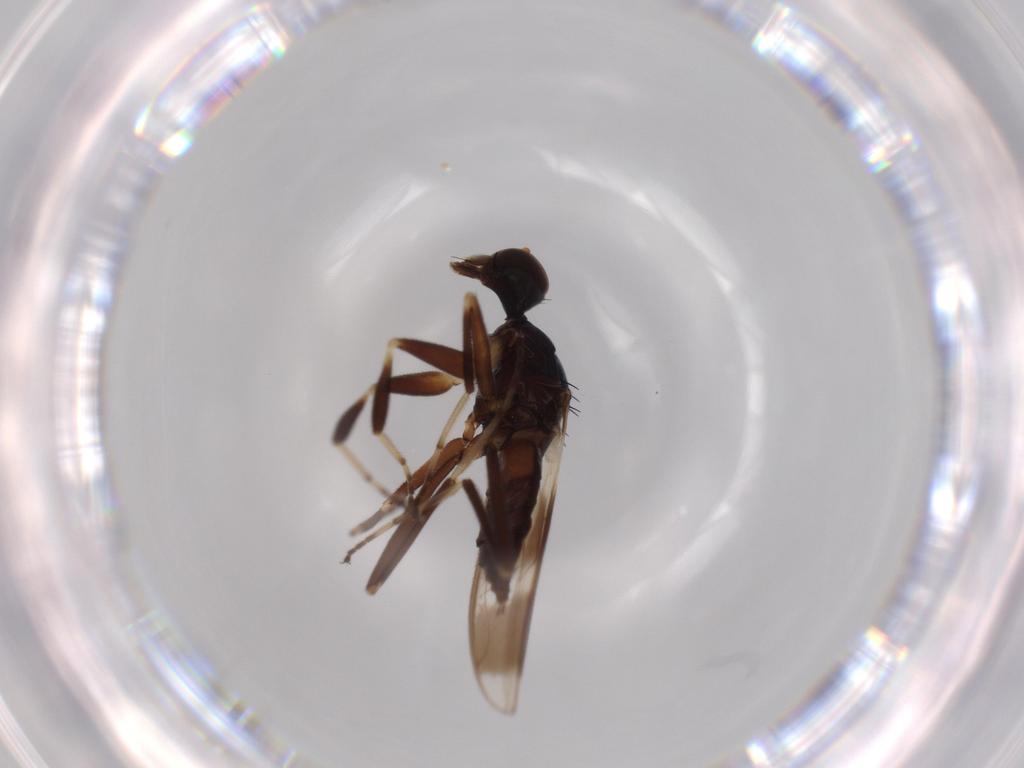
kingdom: Animalia
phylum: Arthropoda
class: Insecta
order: Diptera
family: Hybotidae
